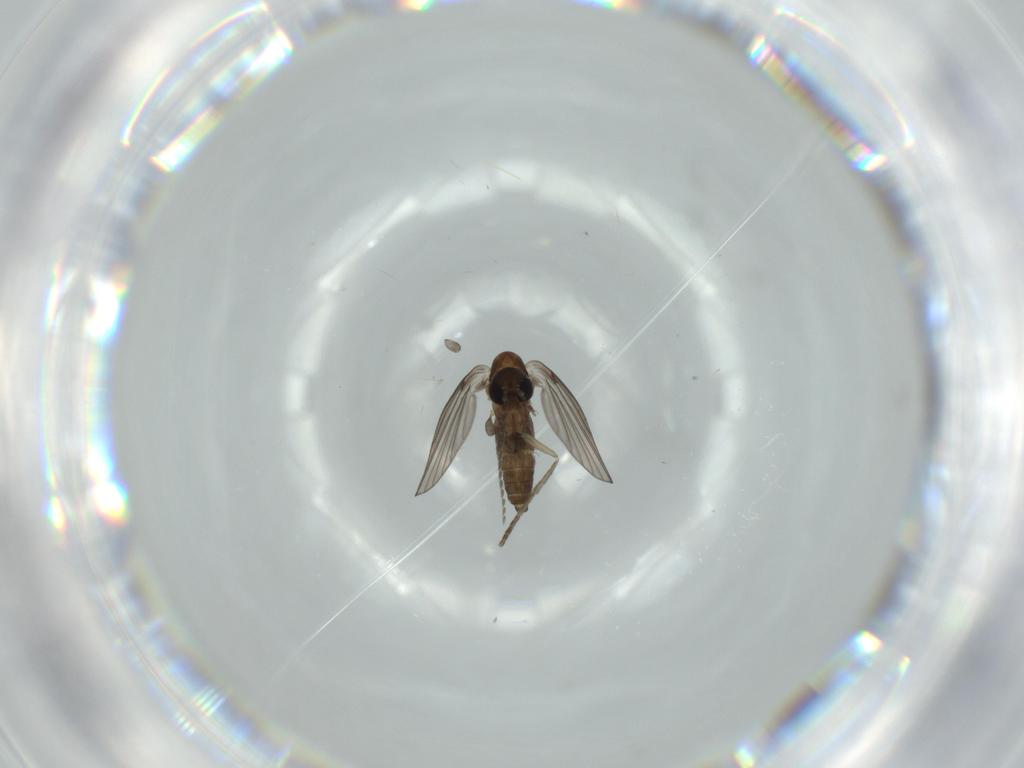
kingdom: Animalia
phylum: Arthropoda
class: Insecta
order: Diptera
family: Psychodidae
